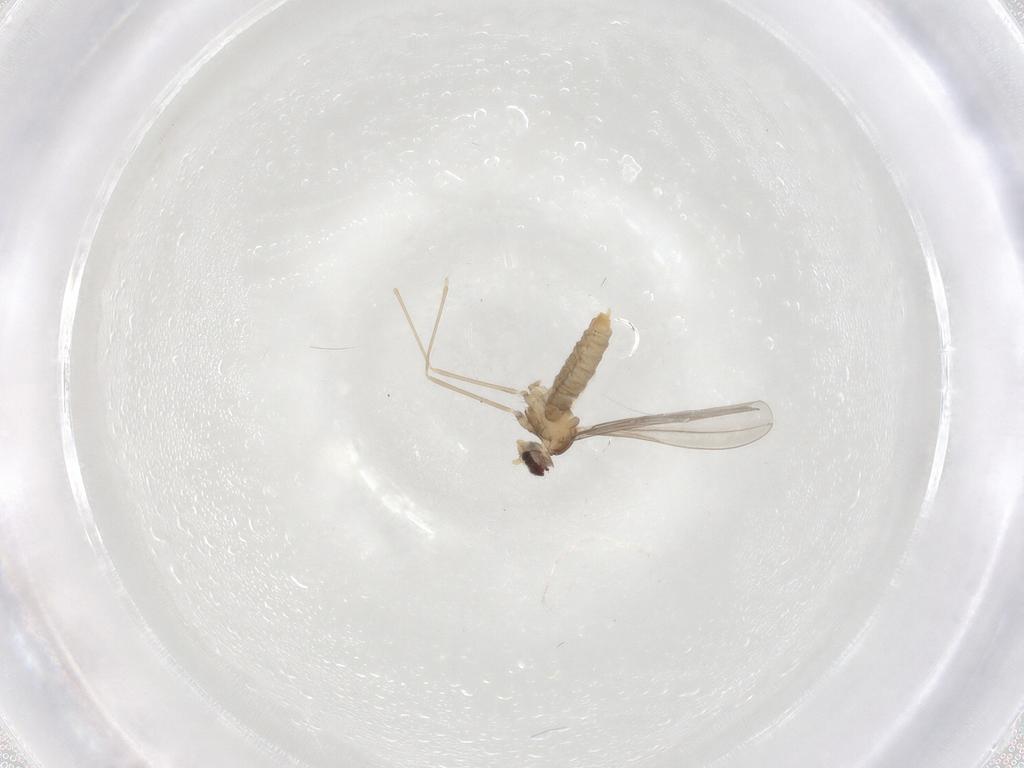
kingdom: Animalia
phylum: Arthropoda
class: Insecta
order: Diptera
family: Cecidomyiidae
